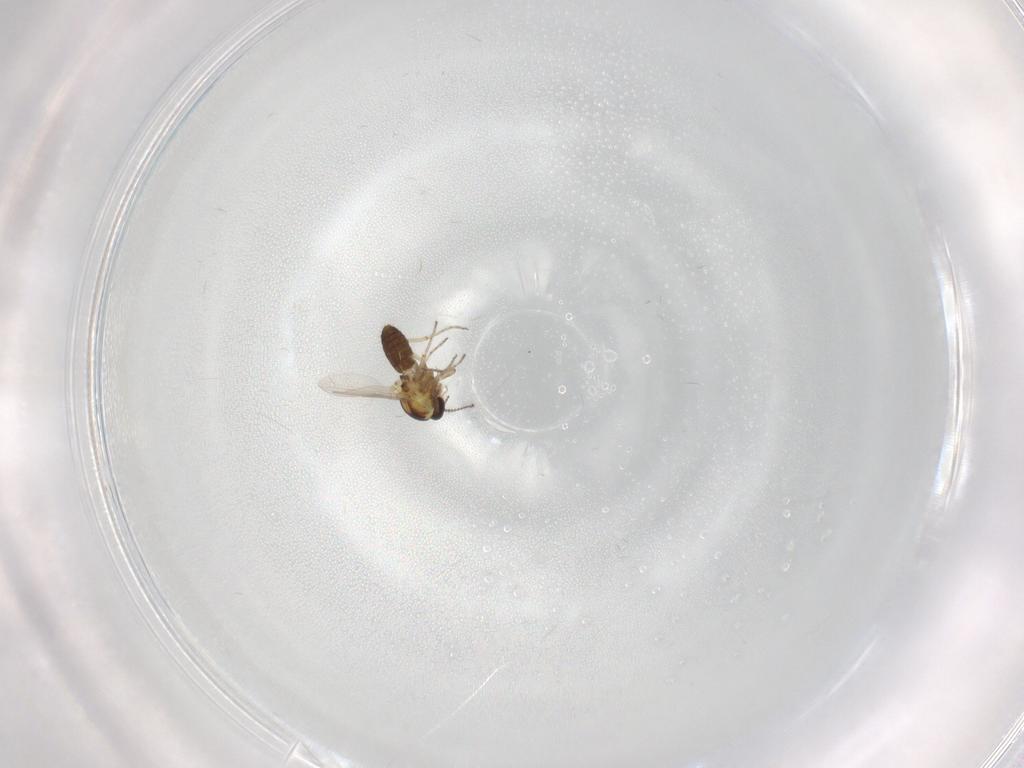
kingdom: Animalia
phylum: Arthropoda
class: Insecta
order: Diptera
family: Ceratopogonidae
